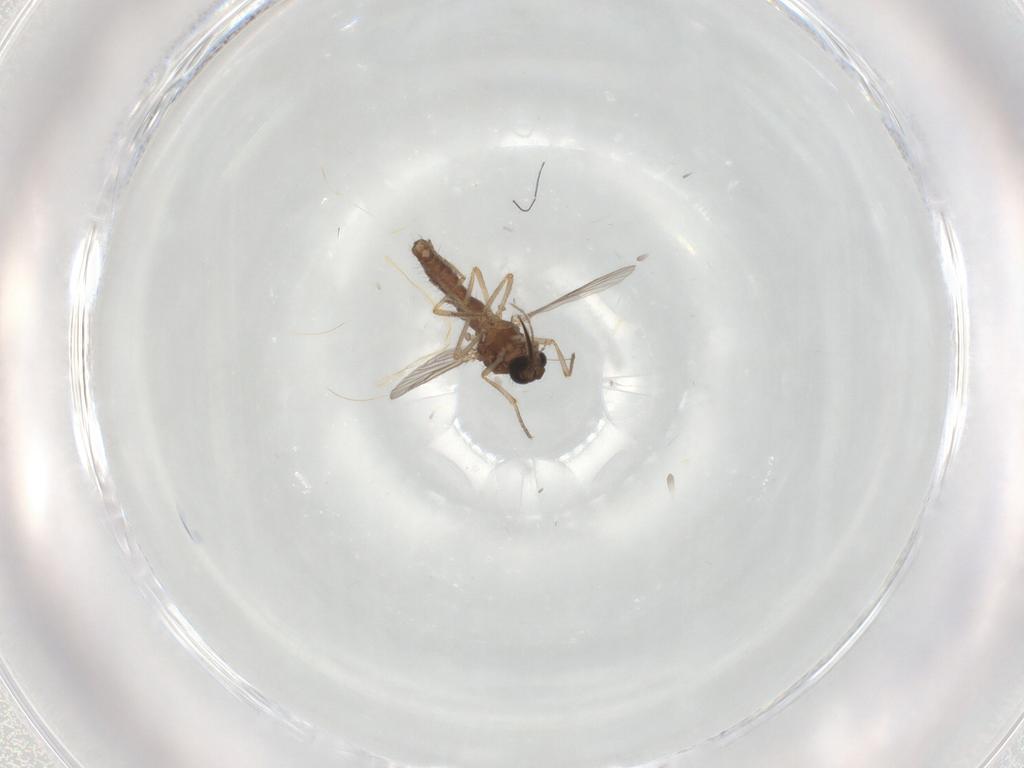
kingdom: Animalia
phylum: Arthropoda
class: Insecta
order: Diptera
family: Ceratopogonidae
